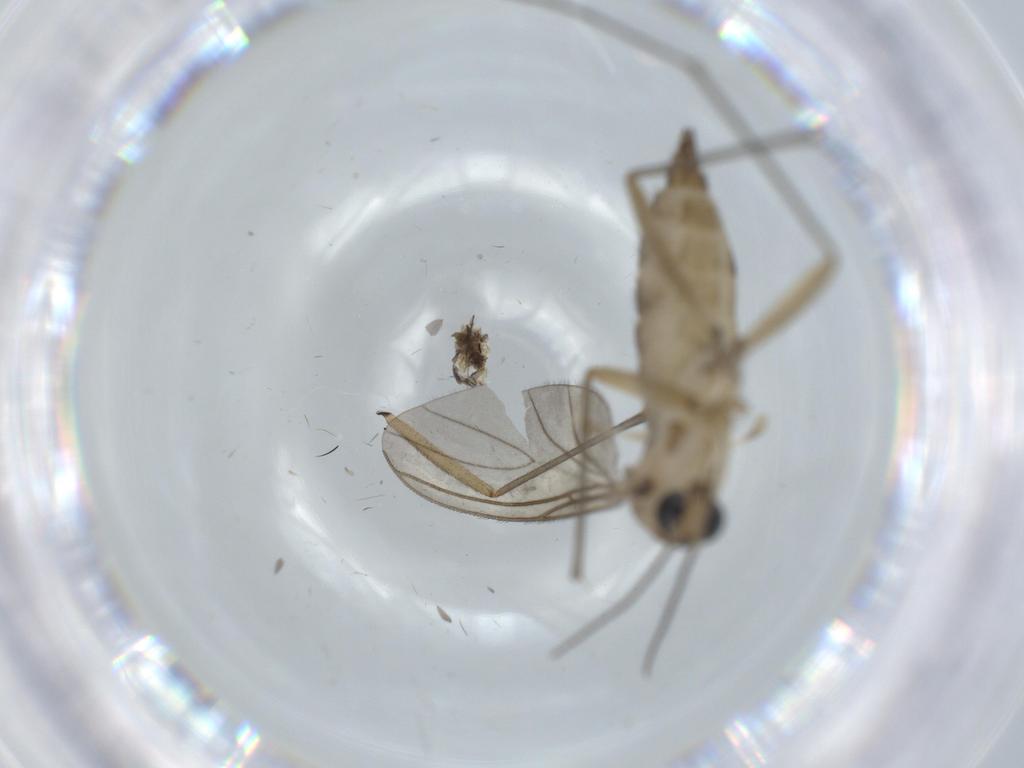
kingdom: Animalia
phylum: Arthropoda
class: Insecta
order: Diptera
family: Sciaridae
